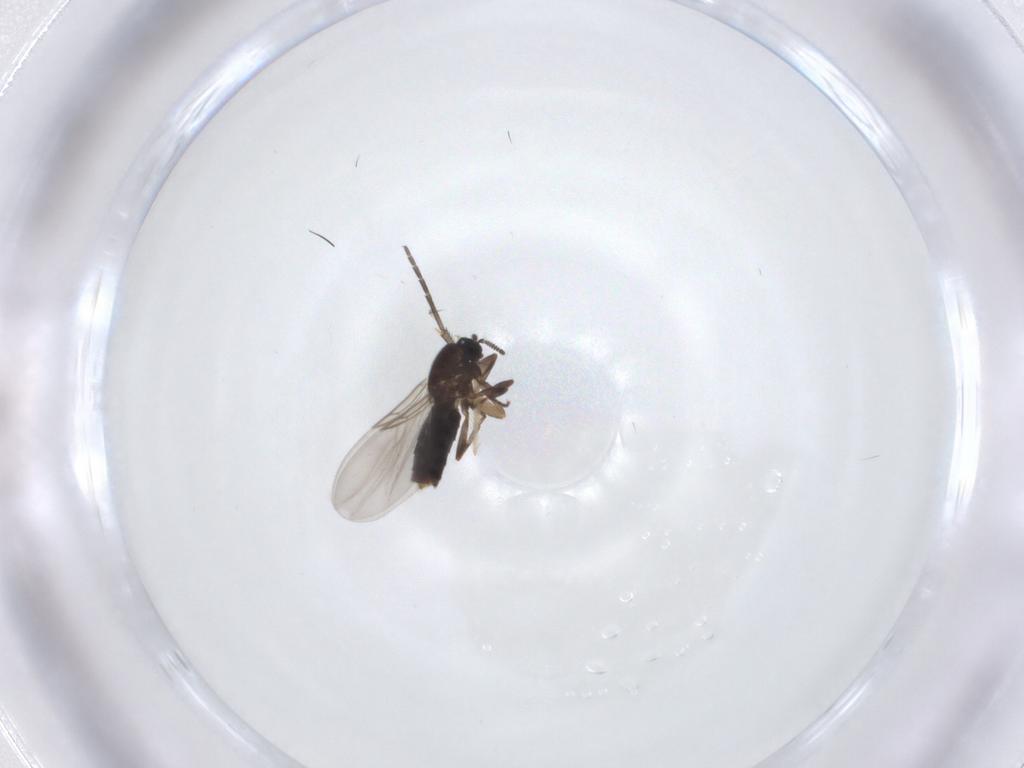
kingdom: Animalia
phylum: Arthropoda
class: Insecta
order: Diptera
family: Scatopsidae
